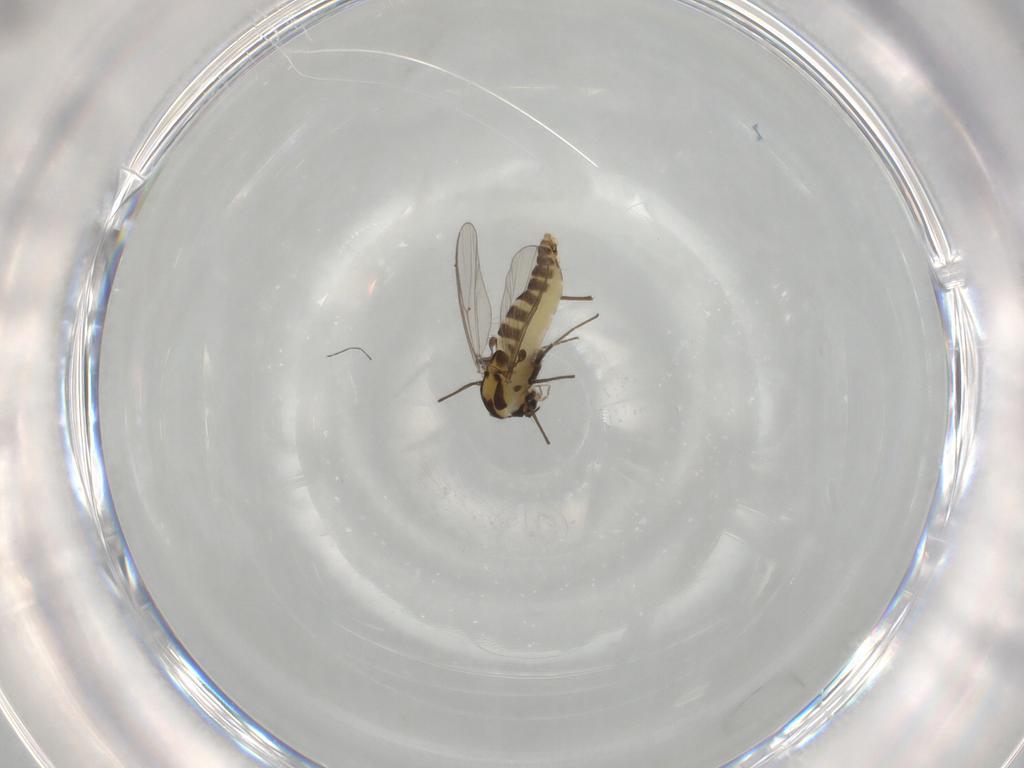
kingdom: Animalia
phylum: Arthropoda
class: Insecta
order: Diptera
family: Chironomidae
